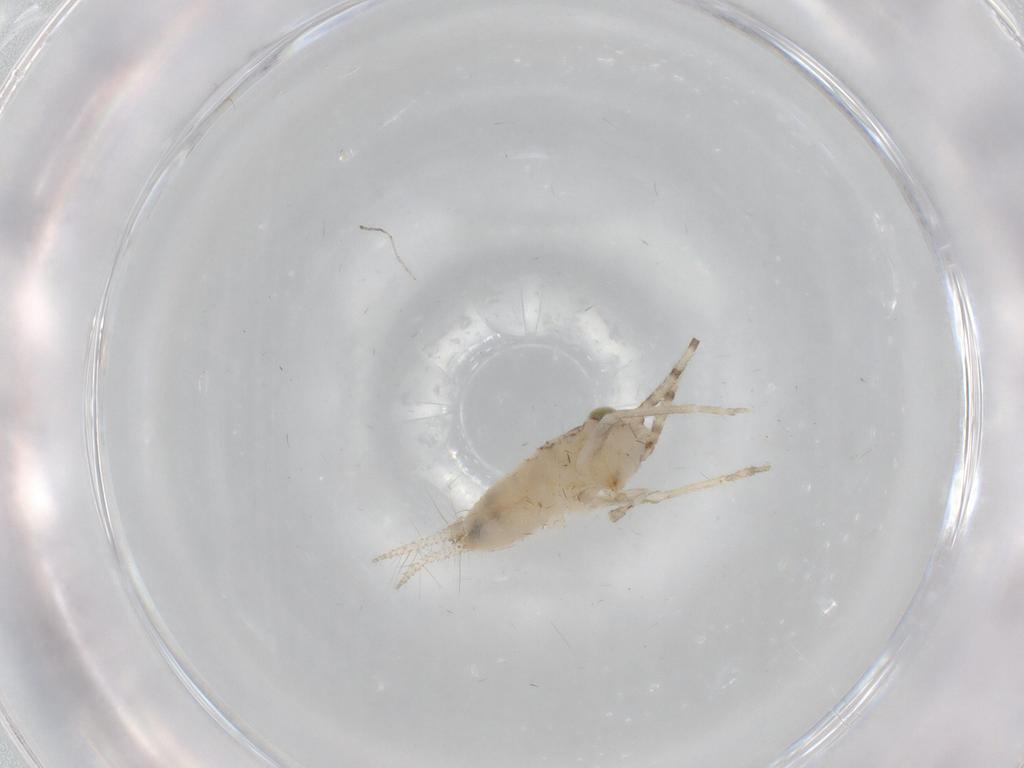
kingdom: Animalia
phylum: Arthropoda
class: Insecta
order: Orthoptera
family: Trigonidiidae
